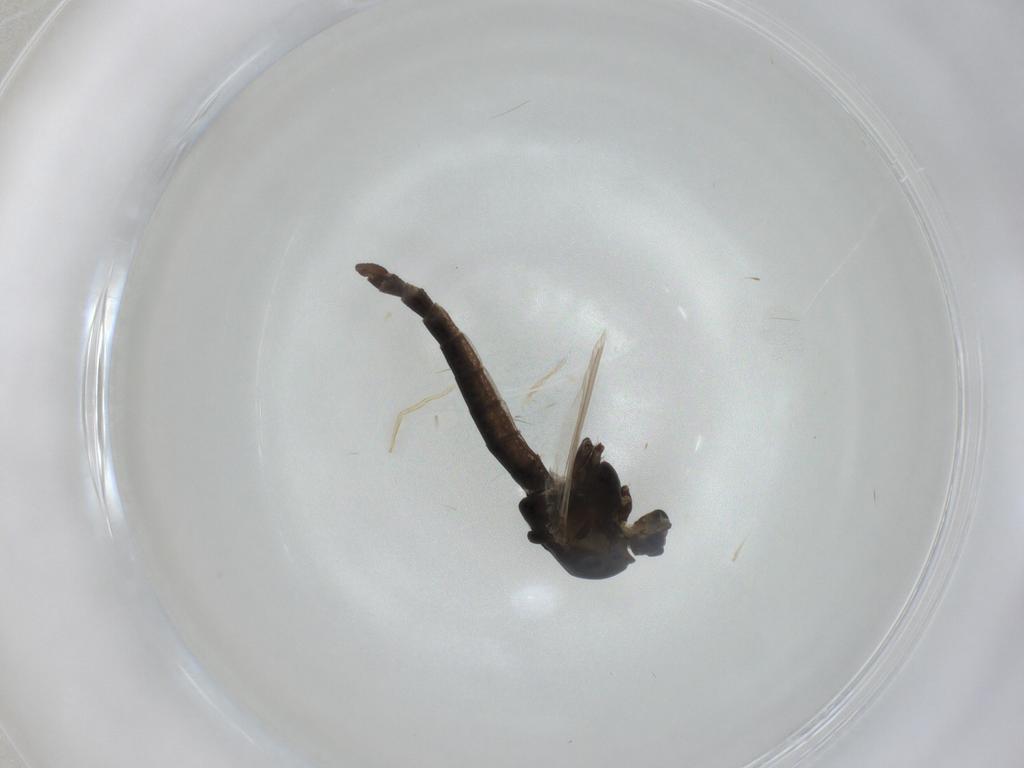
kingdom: Animalia
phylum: Arthropoda
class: Insecta
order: Diptera
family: Chironomidae
